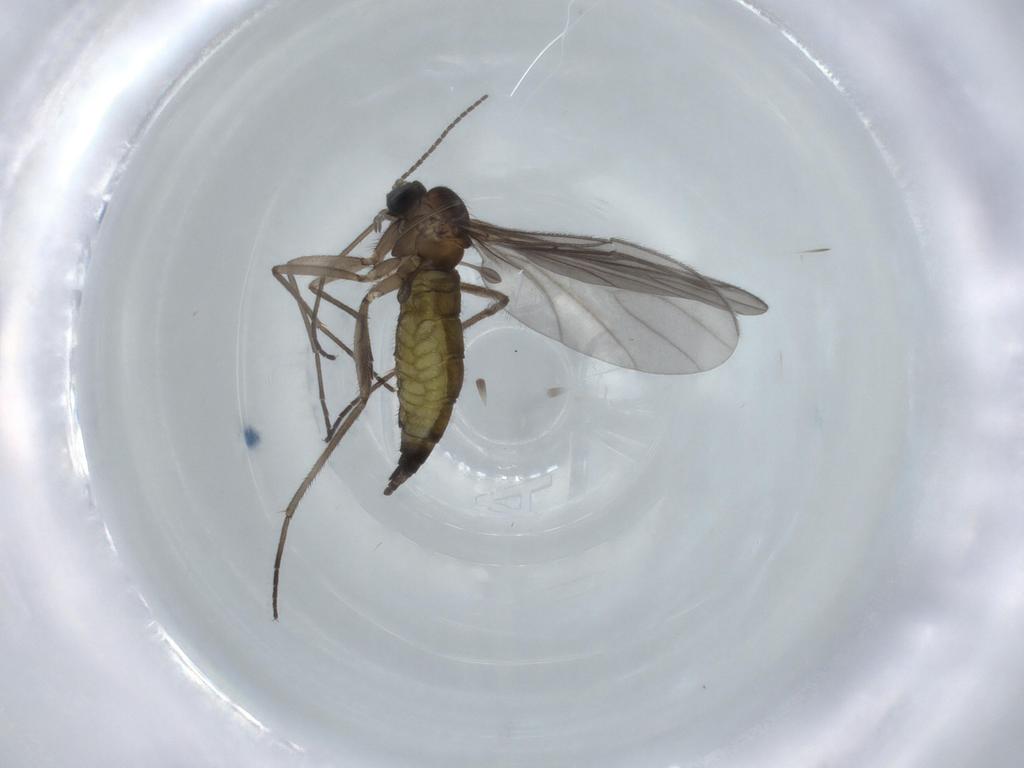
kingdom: Animalia
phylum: Arthropoda
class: Insecta
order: Diptera
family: Sciaridae
